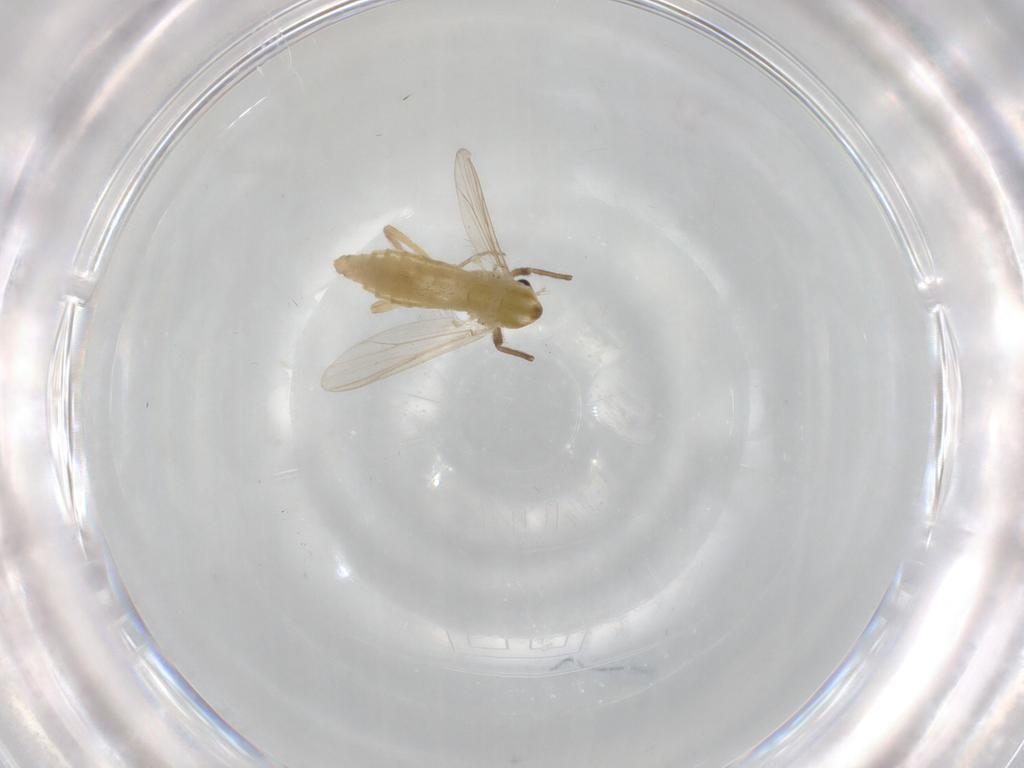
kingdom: Animalia
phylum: Arthropoda
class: Insecta
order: Diptera
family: Chironomidae
